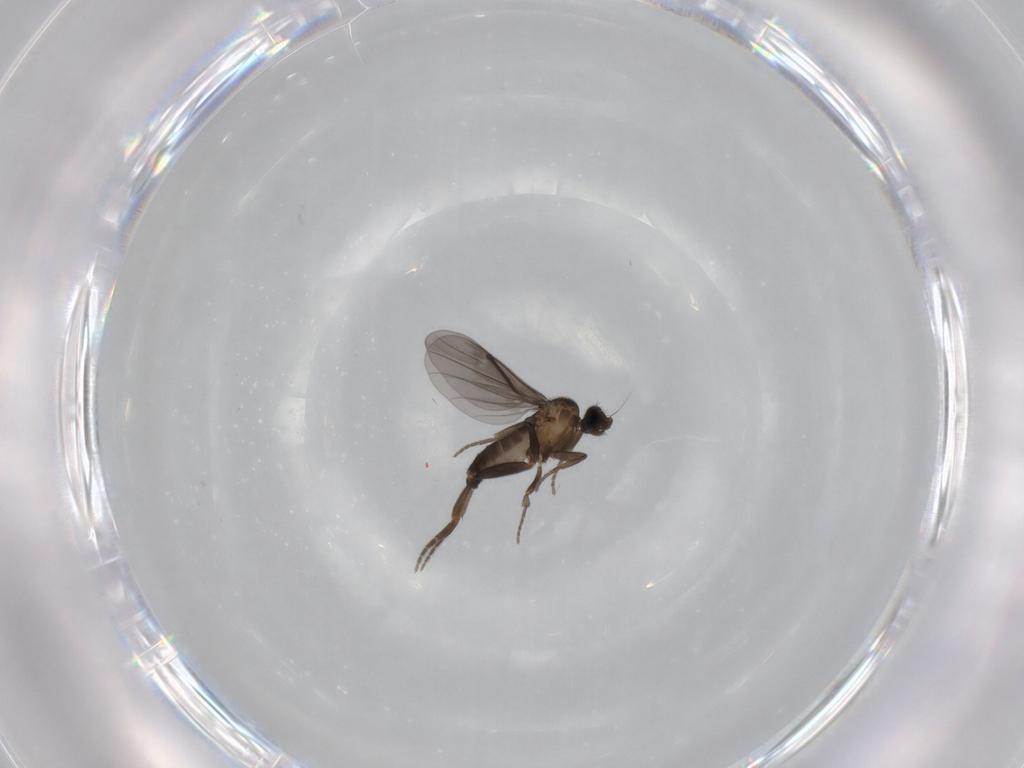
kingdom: Animalia
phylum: Arthropoda
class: Insecta
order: Diptera
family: Phoridae
